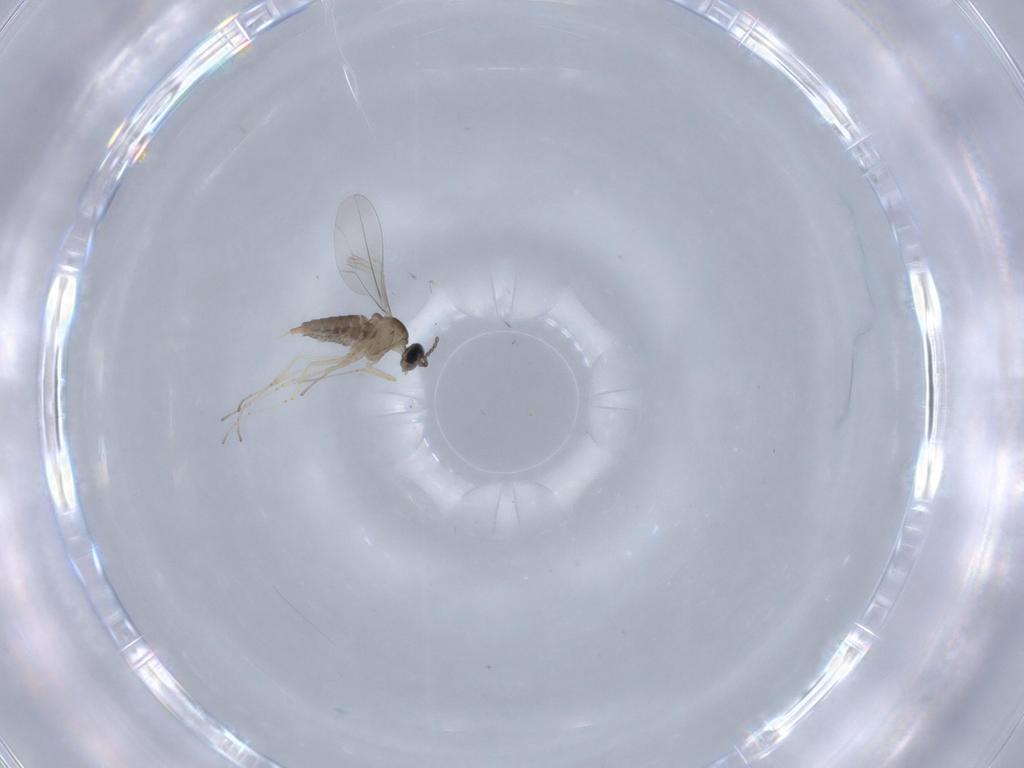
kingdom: Animalia
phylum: Arthropoda
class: Insecta
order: Diptera
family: Cecidomyiidae
